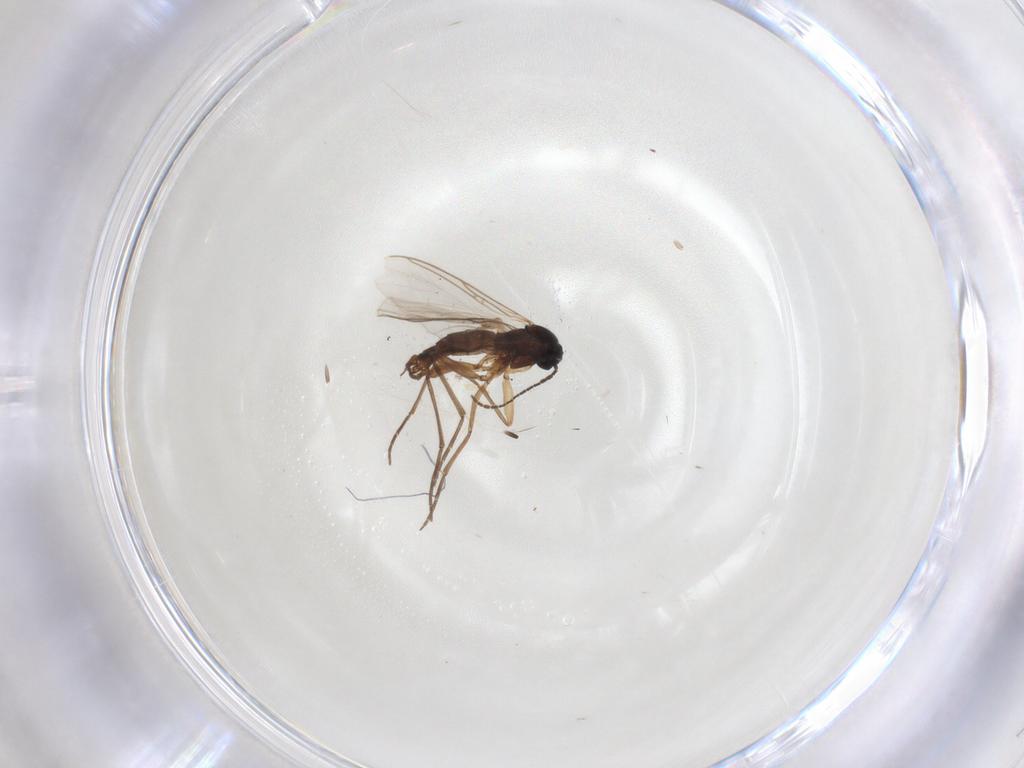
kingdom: Animalia
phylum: Arthropoda
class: Insecta
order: Diptera
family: Sciaridae
